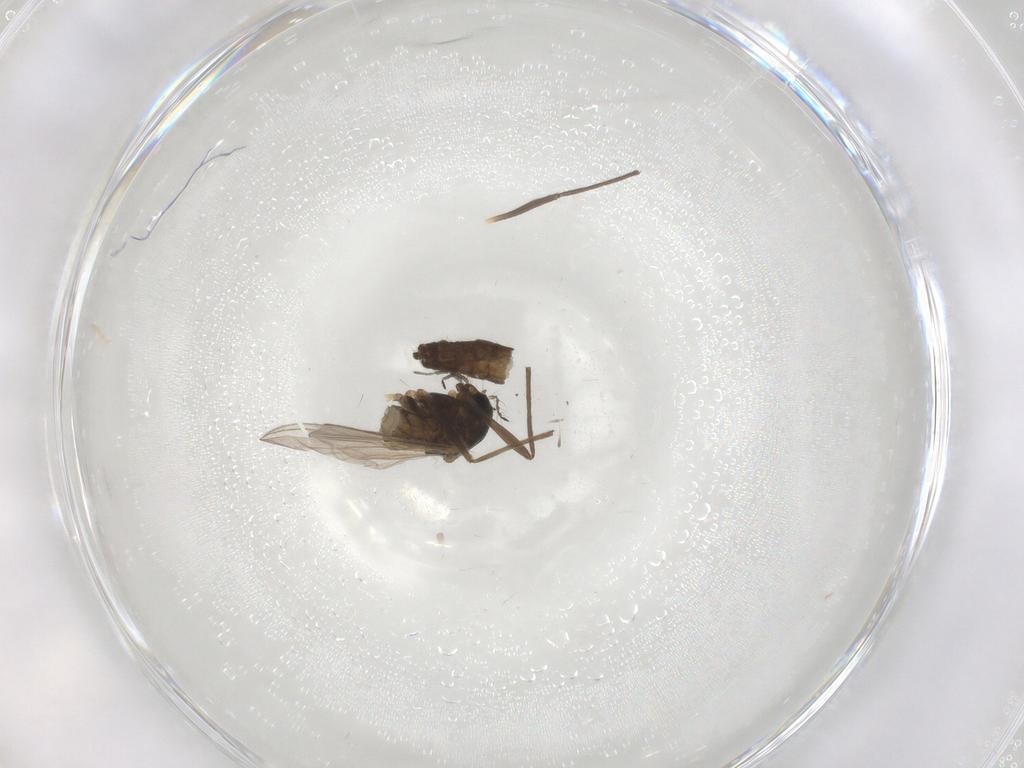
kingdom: Animalia
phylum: Arthropoda
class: Insecta
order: Diptera
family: Chironomidae
